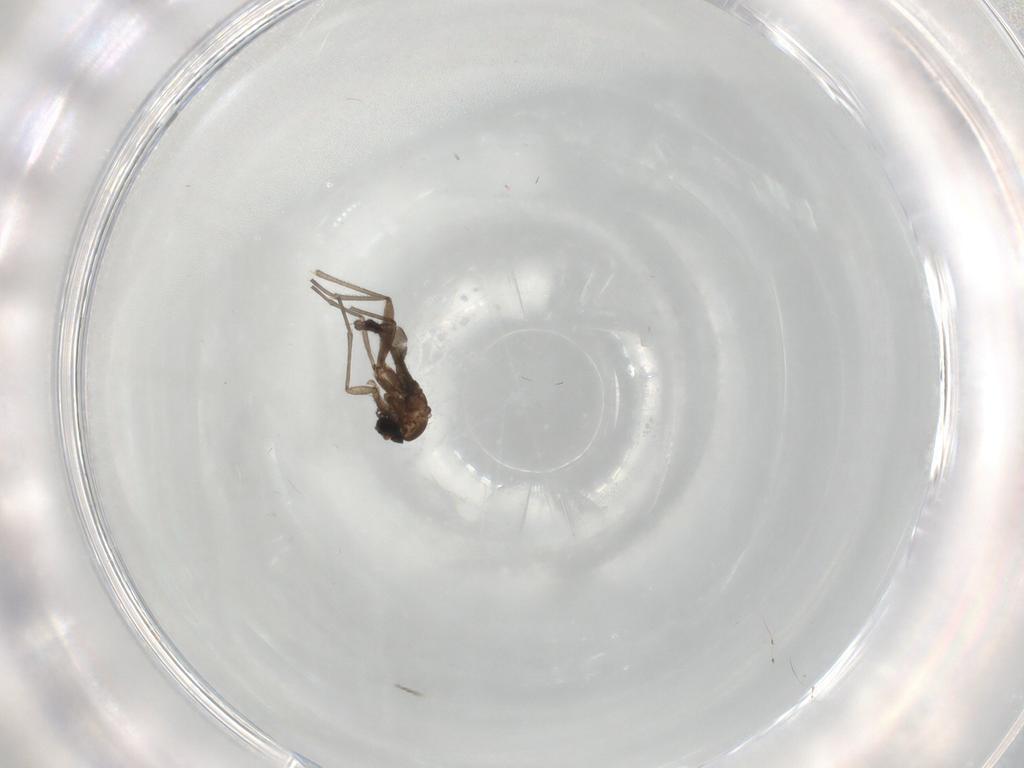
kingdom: Animalia
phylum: Arthropoda
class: Insecta
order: Diptera
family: Sciaridae
